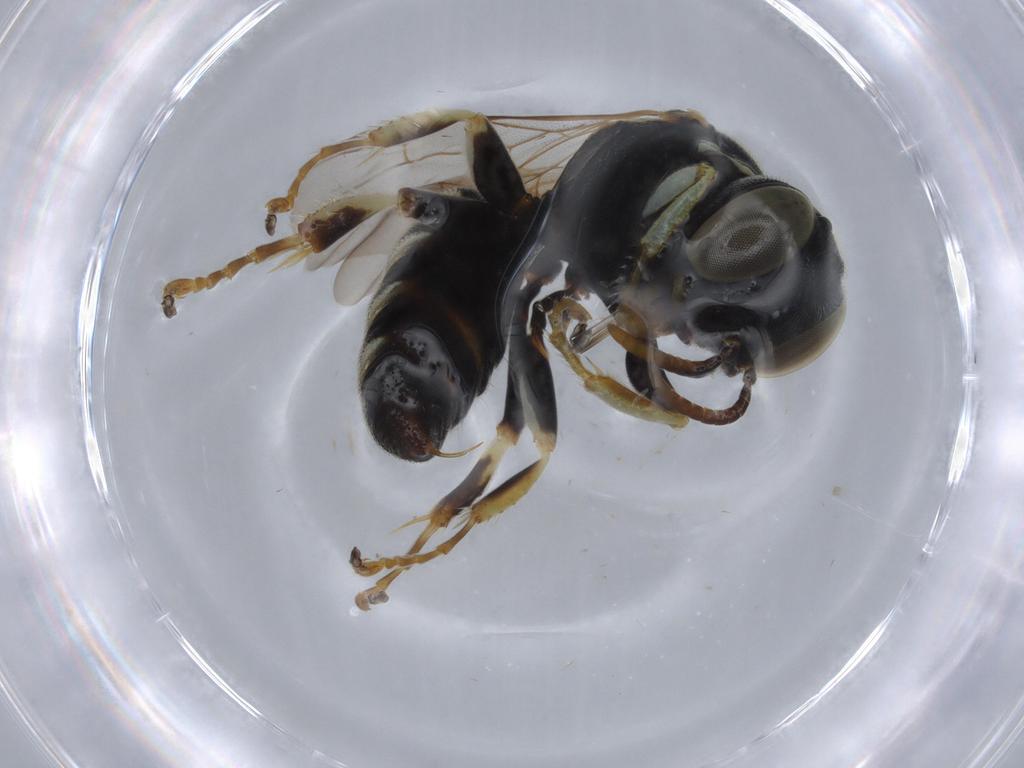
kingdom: Animalia
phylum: Arthropoda
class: Insecta
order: Hymenoptera
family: Crabronidae
